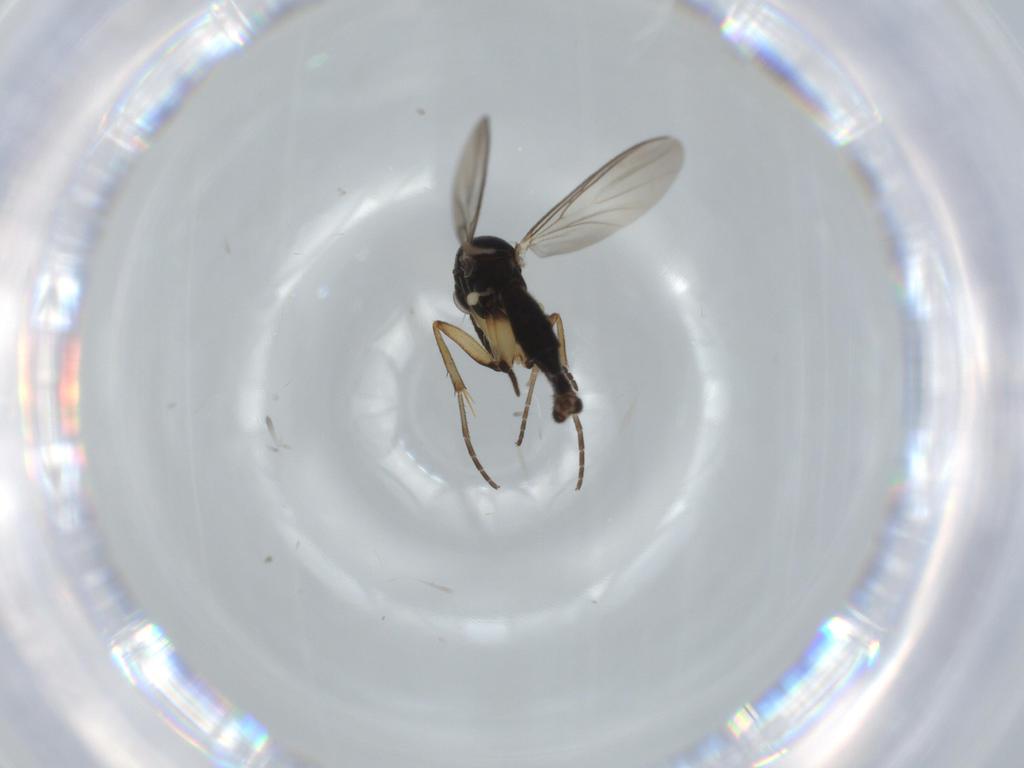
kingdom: Animalia
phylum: Arthropoda
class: Insecta
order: Diptera
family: Mycetophilidae
